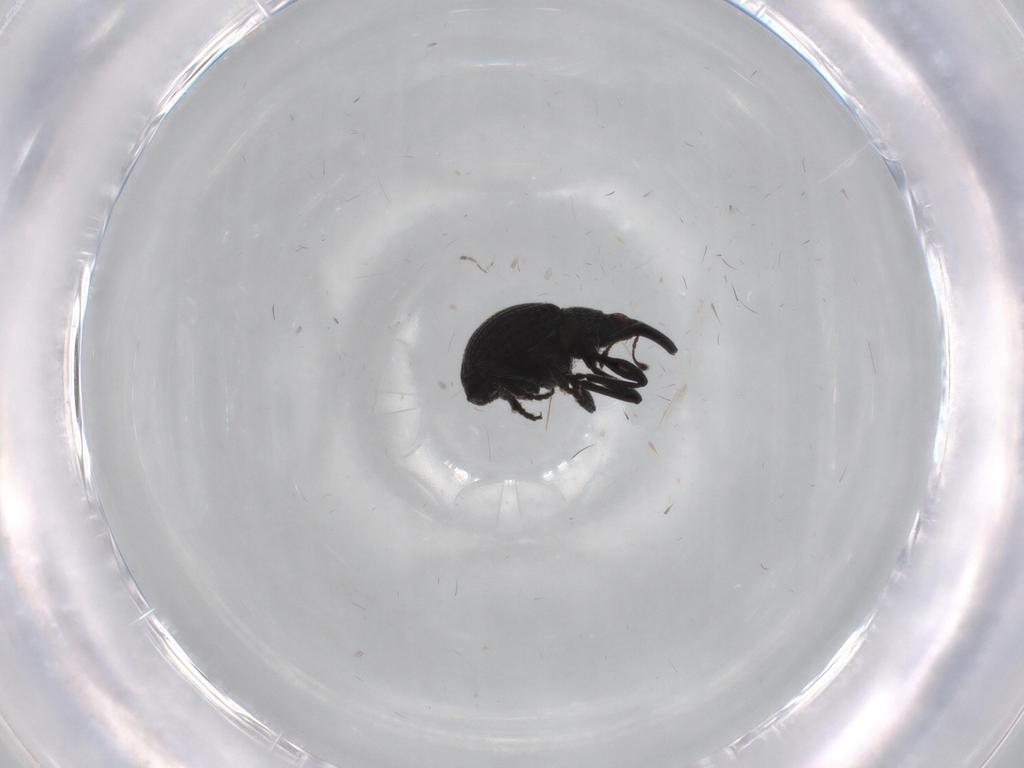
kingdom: Animalia
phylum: Arthropoda
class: Insecta
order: Coleoptera
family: Brentidae
